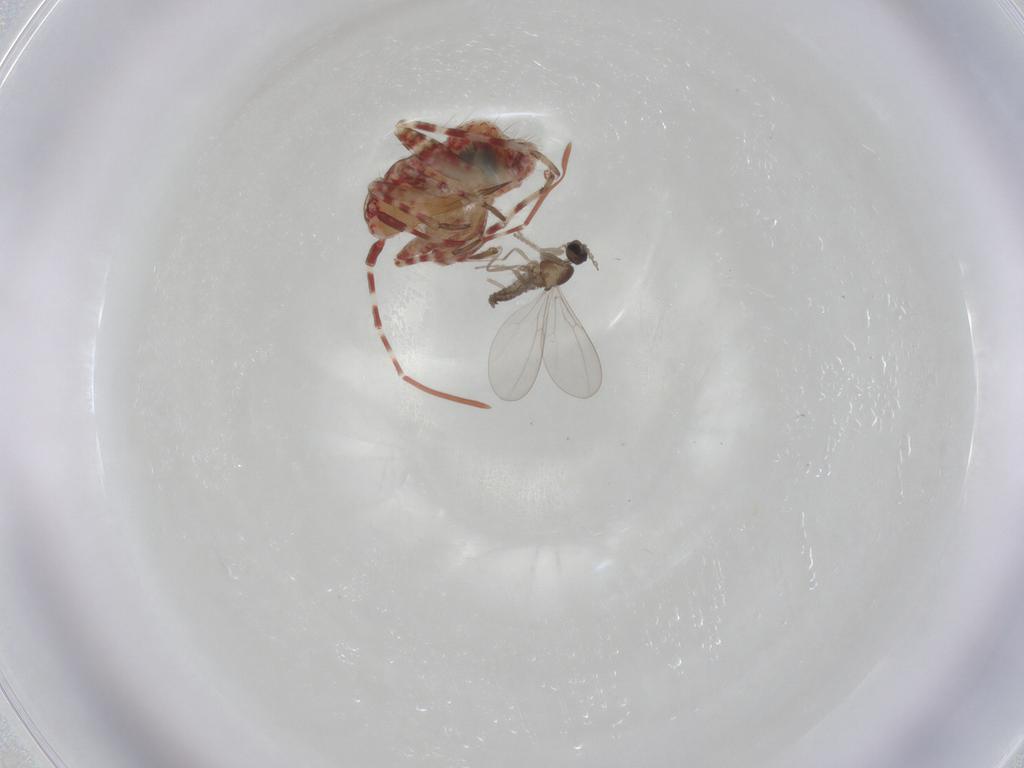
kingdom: Animalia
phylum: Arthropoda
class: Insecta
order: Diptera
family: Cecidomyiidae
